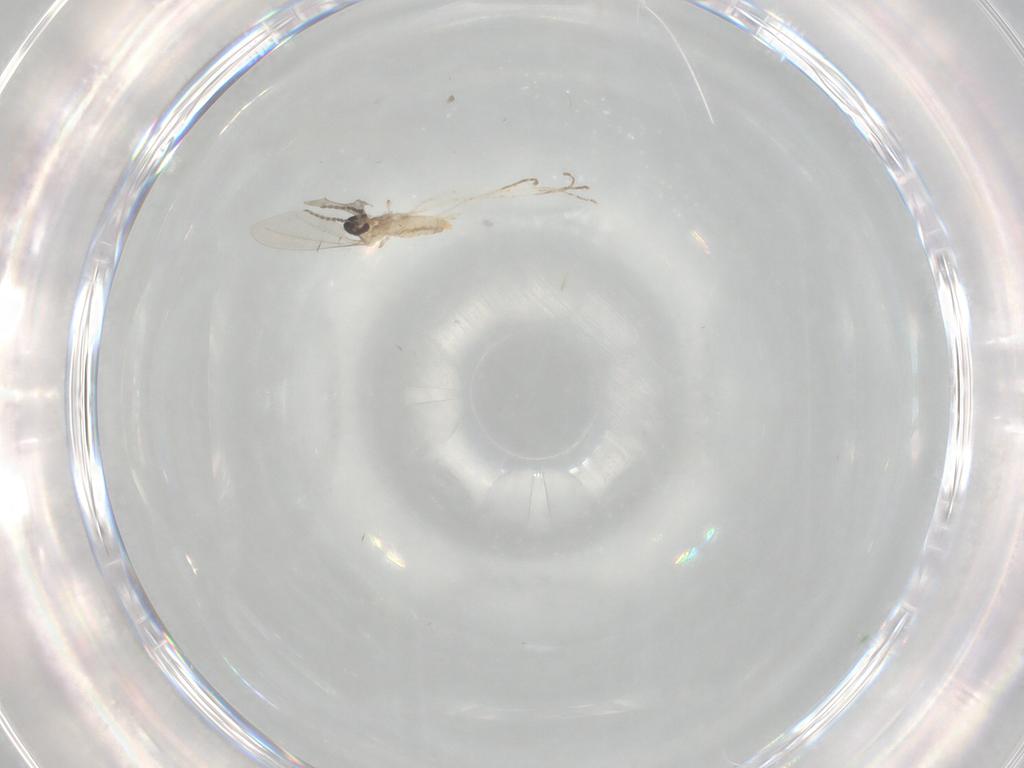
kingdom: Animalia
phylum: Arthropoda
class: Insecta
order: Diptera
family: Cecidomyiidae
